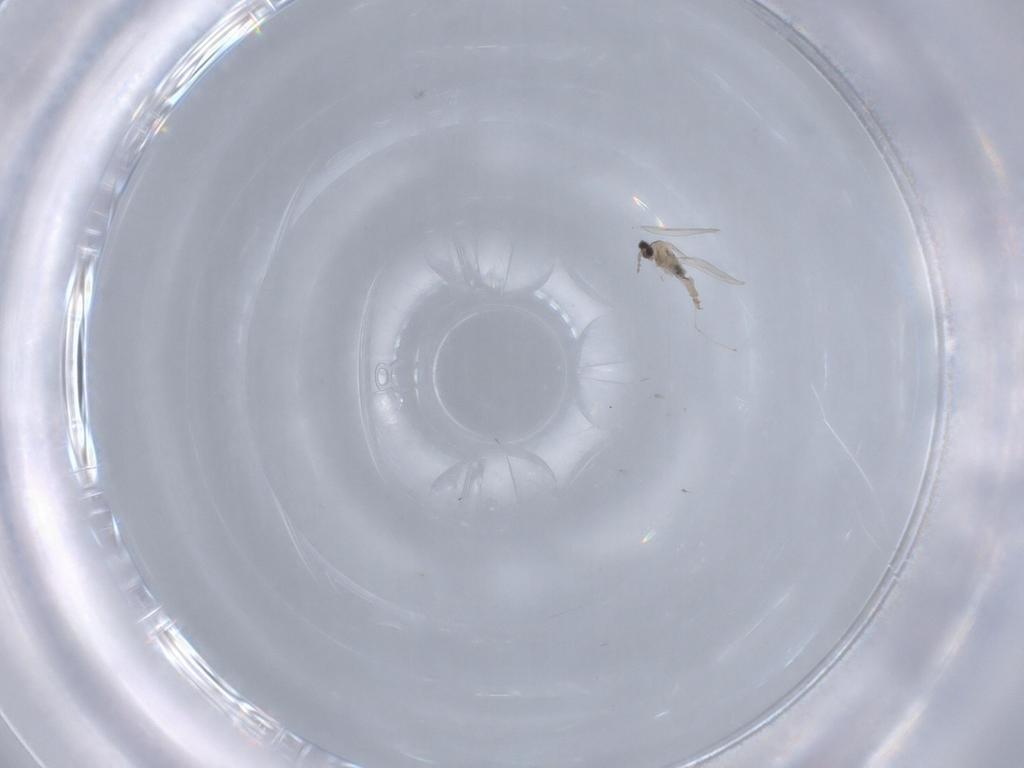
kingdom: Animalia
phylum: Arthropoda
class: Insecta
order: Diptera
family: Cecidomyiidae
